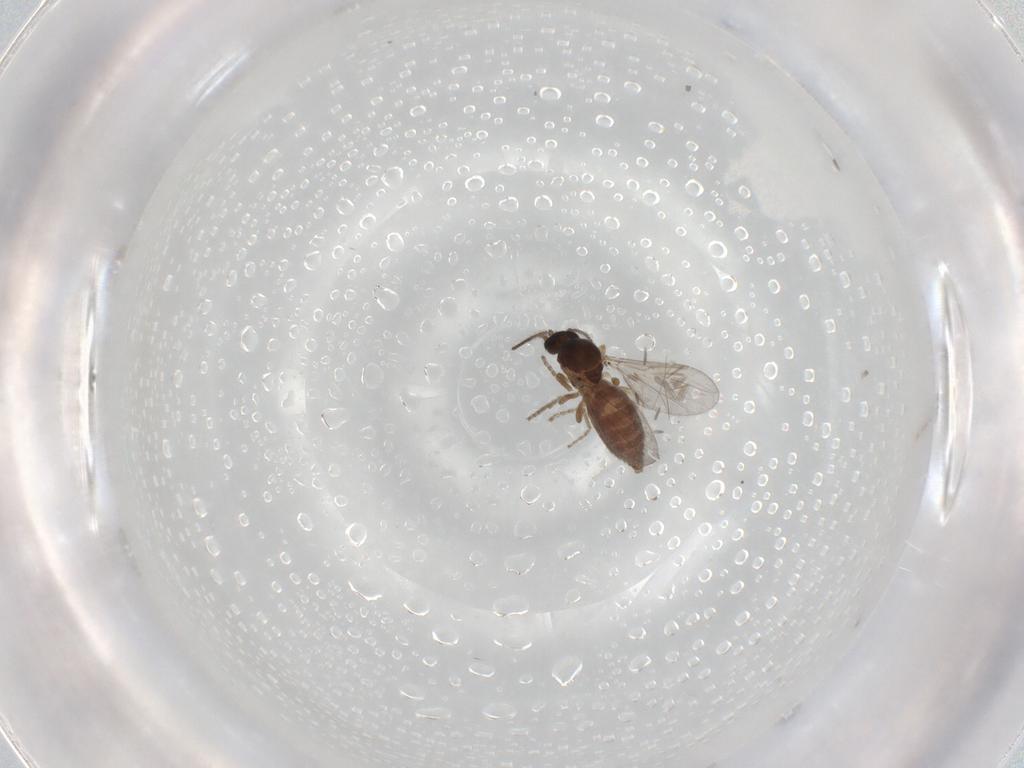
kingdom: Animalia
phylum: Arthropoda
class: Insecta
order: Diptera
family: Ceratopogonidae
